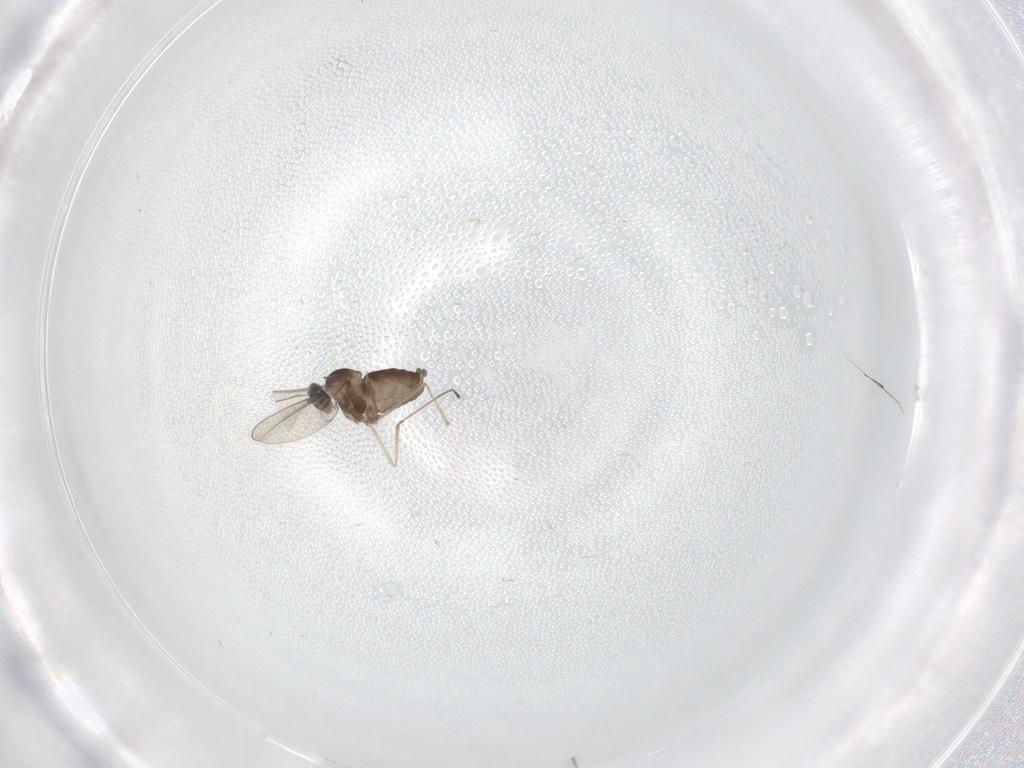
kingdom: Animalia
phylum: Arthropoda
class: Insecta
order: Diptera
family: Cecidomyiidae
